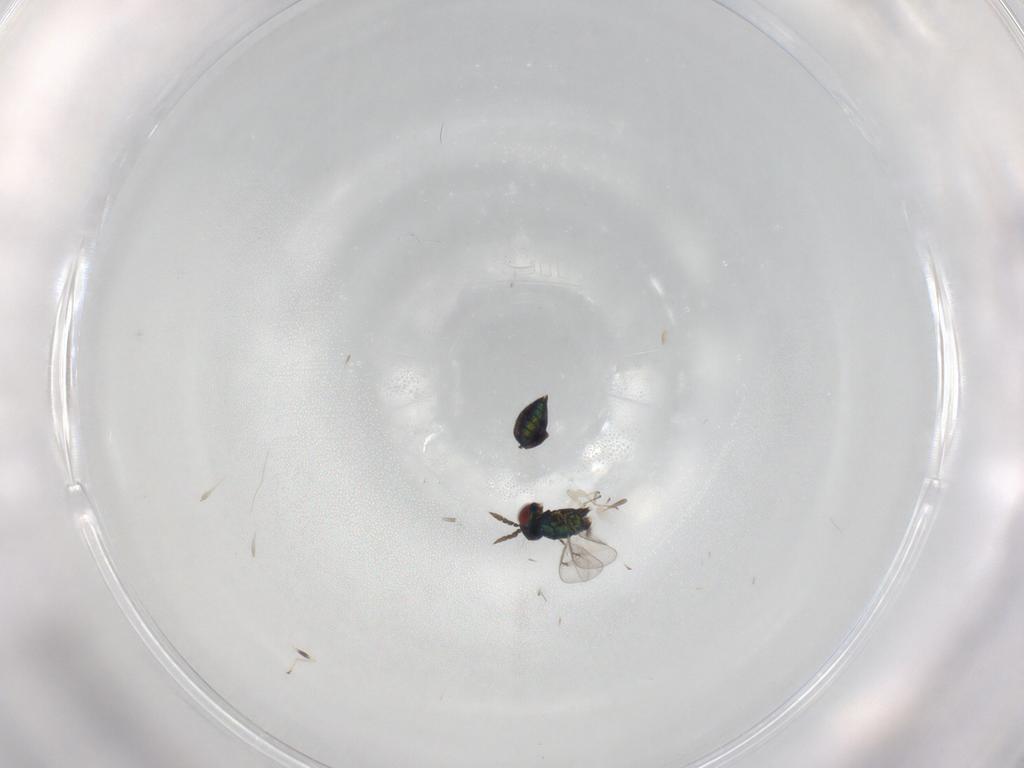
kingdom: Animalia
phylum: Arthropoda
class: Insecta
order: Hymenoptera
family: Eulophidae
